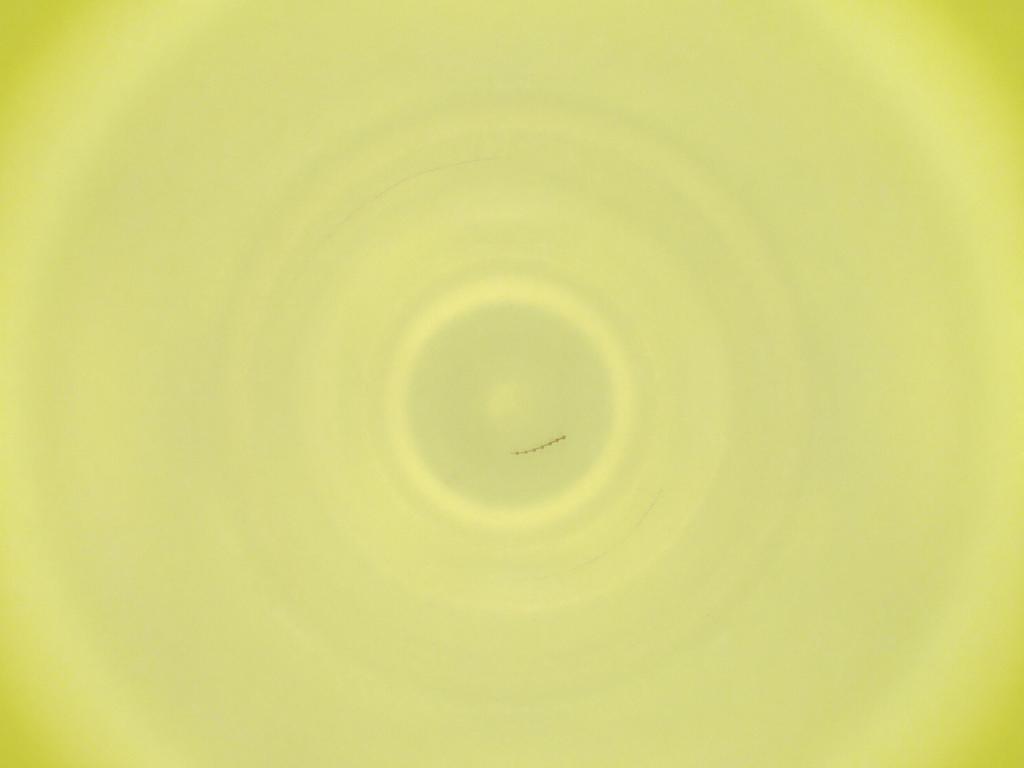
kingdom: Animalia
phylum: Arthropoda
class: Insecta
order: Diptera
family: Cecidomyiidae
